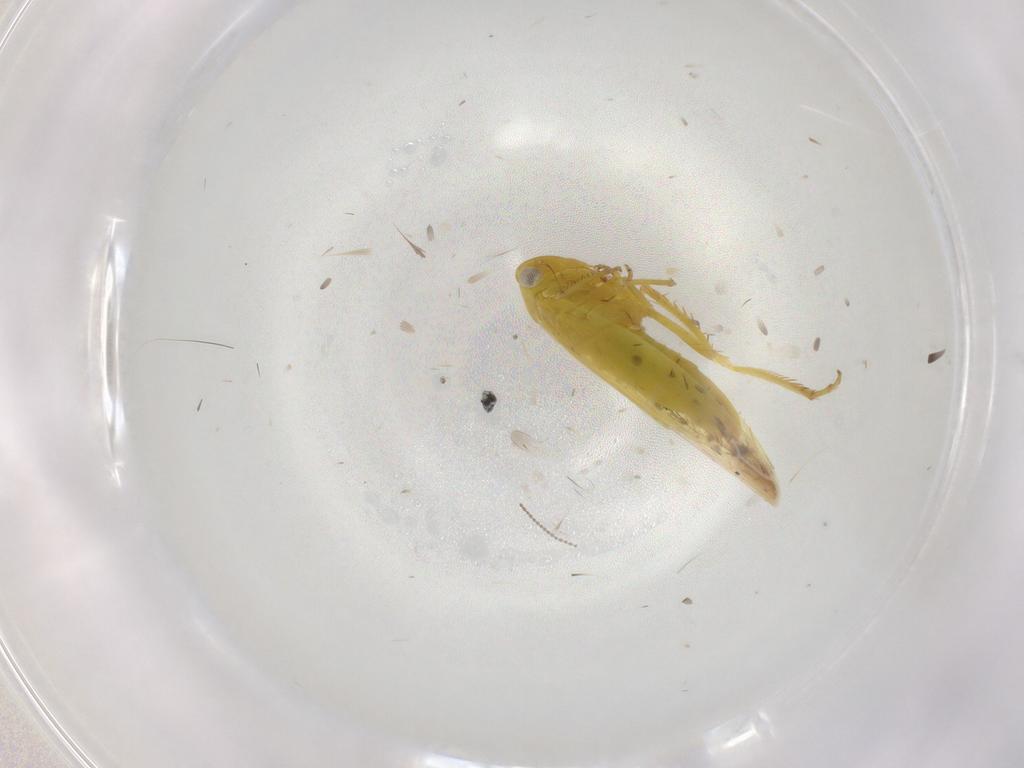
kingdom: Animalia
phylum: Arthropoda
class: Insecta
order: Hemiptera
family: Cicadellidae
